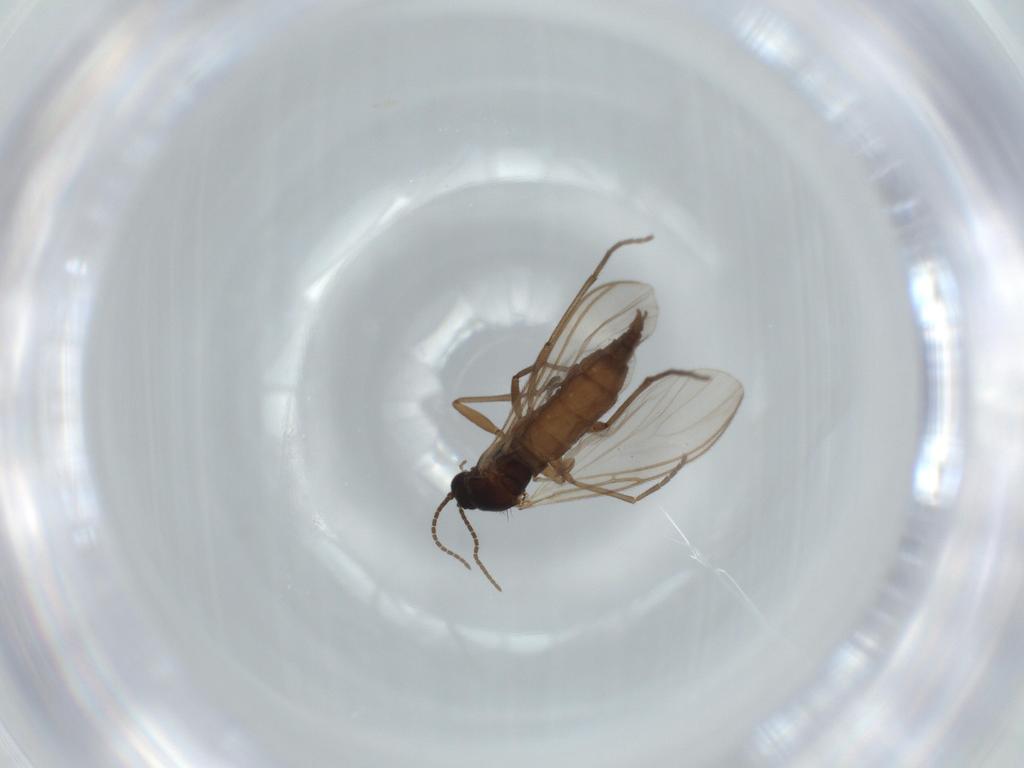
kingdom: Animalia
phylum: Arthropoda
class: Insecta
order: Diptera
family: Sciaridae
